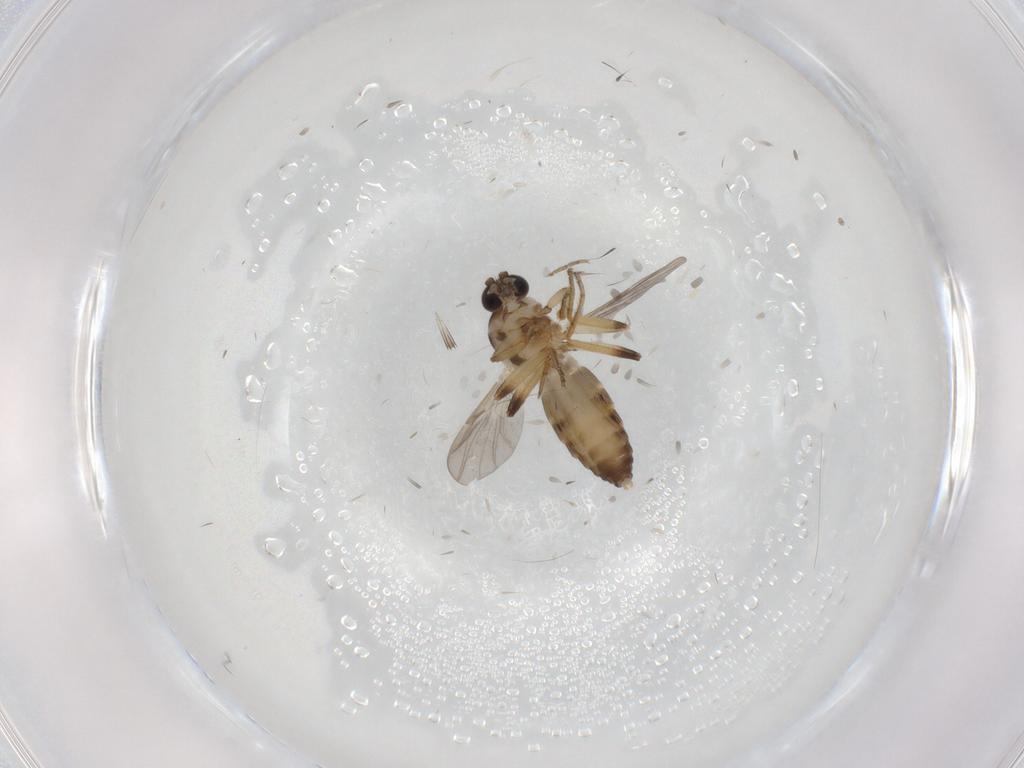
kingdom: Animalia
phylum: Arthropoda
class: Insecta
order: Diptera
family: Ceratopogonidae
